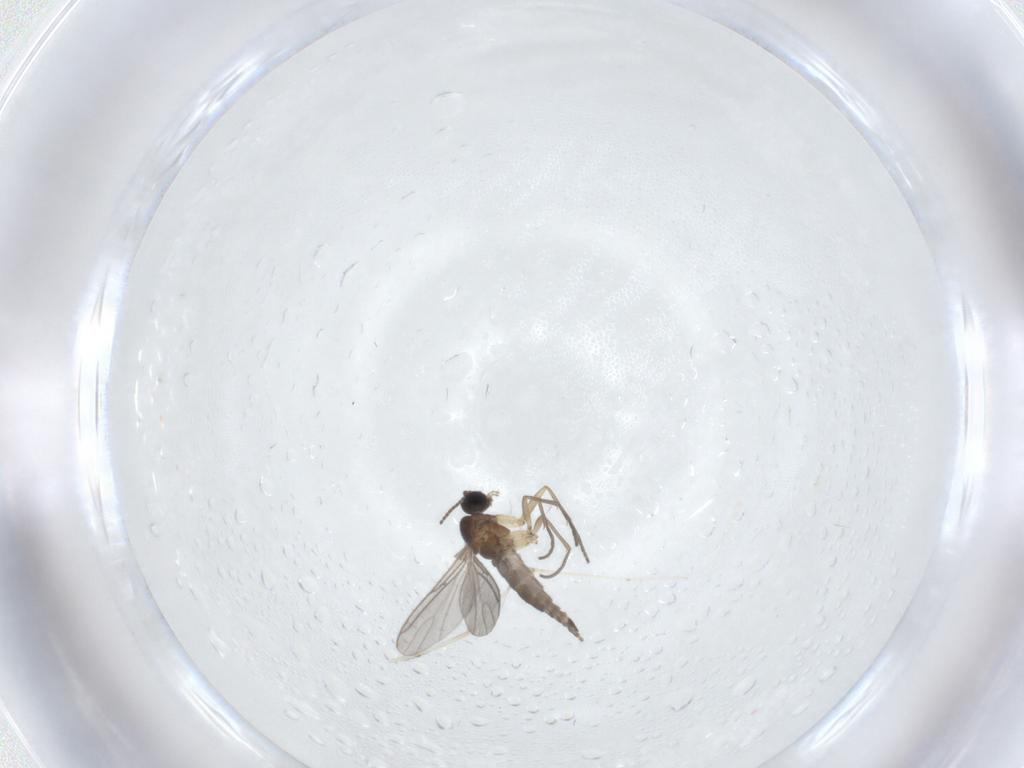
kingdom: Animalia
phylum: Arthropoda
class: Insecta
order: Diptera
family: Sciaridae
